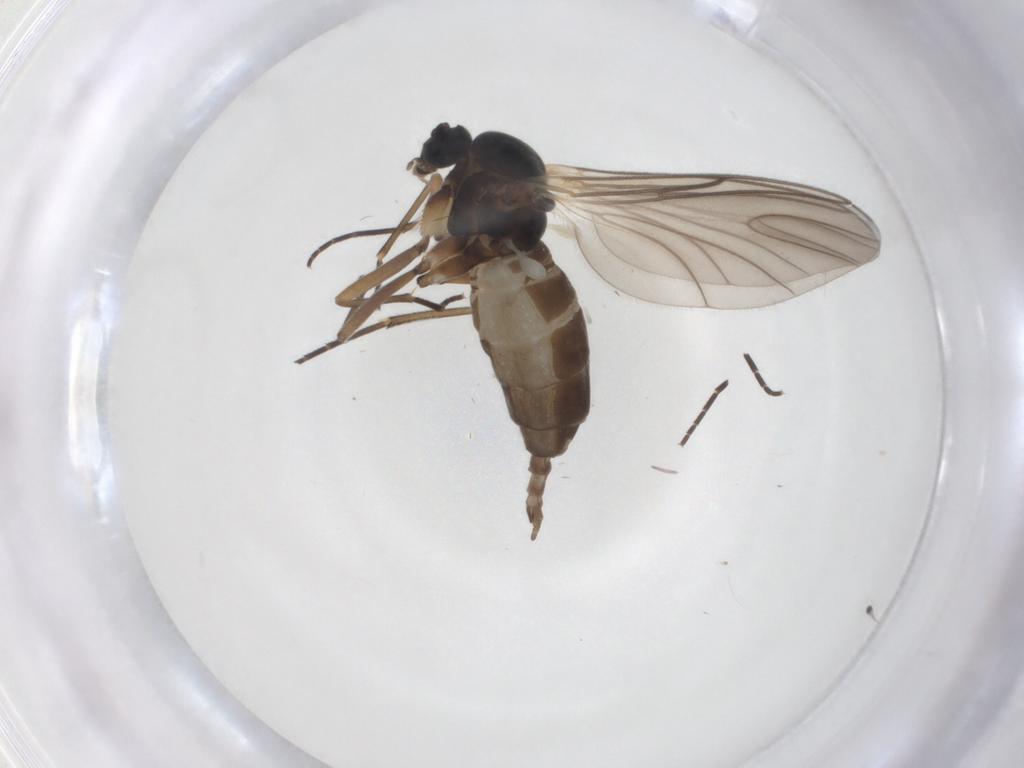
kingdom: Animalia
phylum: Arthropoda
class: Insecta
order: Diptera
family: Sciaridae
